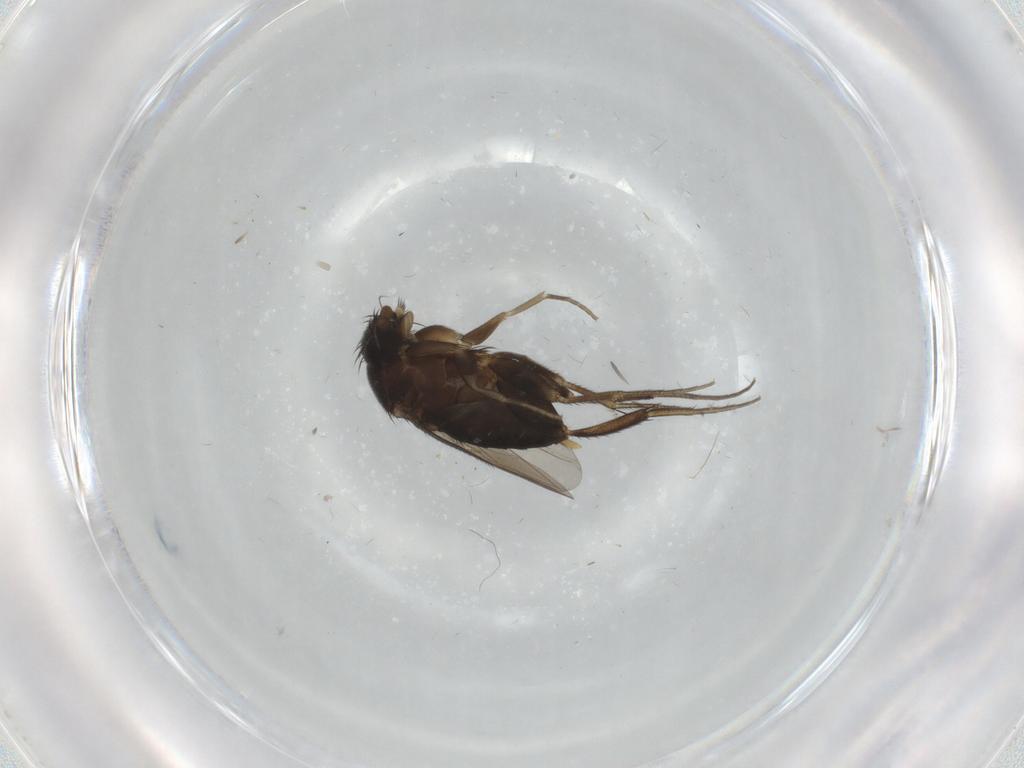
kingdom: Animalia
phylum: Arthropoda
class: Insecta
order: Diptera
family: Phoridae
